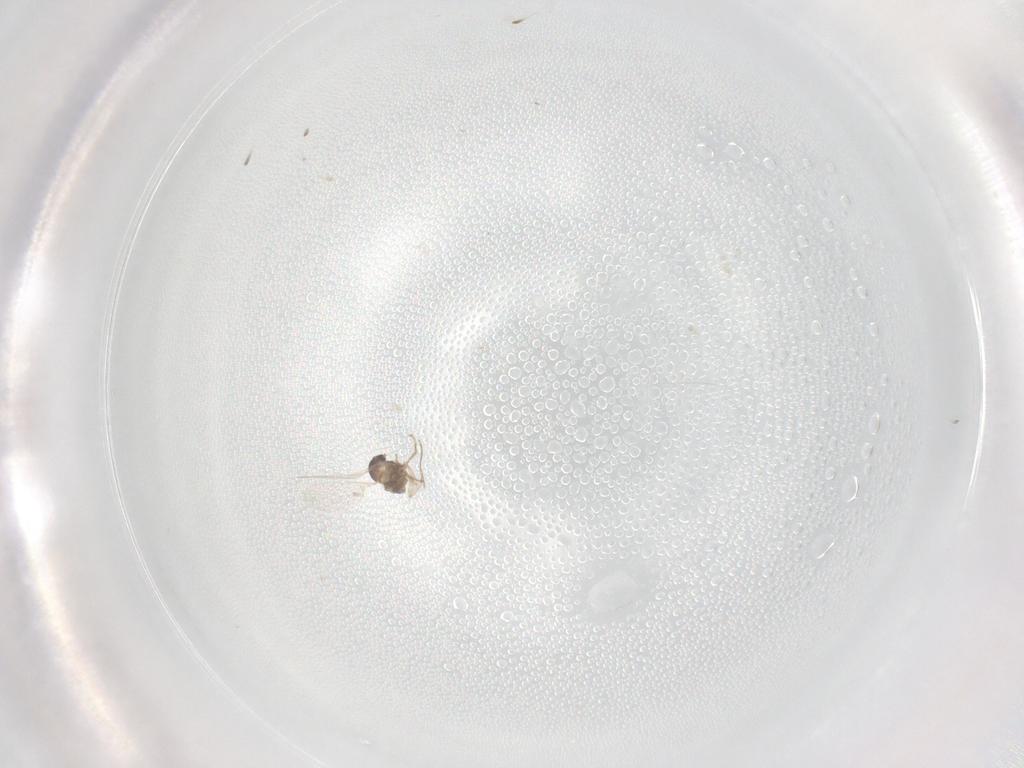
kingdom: Animalia
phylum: Arthropoda
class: Insecta
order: Diptera
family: Cecidomyiidae
